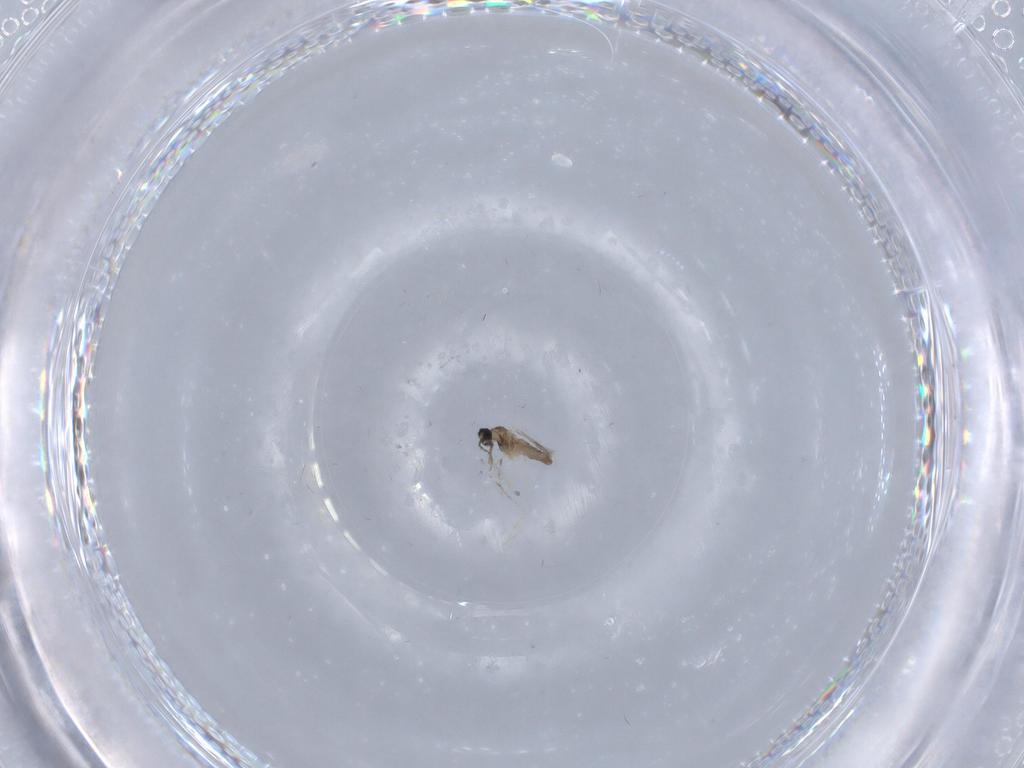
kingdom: Animalia
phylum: Arthropoda
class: Insecta
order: Diptera
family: Cecidomyiidae
